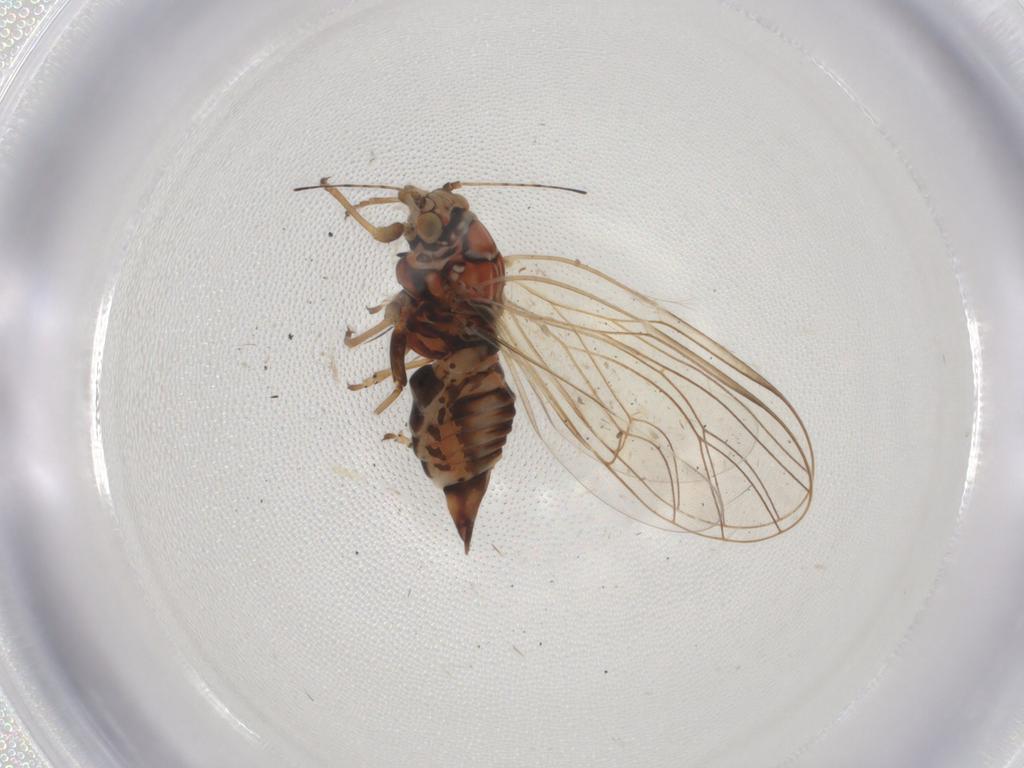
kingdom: Animalia
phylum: Arthropoda
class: Insecta
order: Hemiptera
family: Psyllidae
